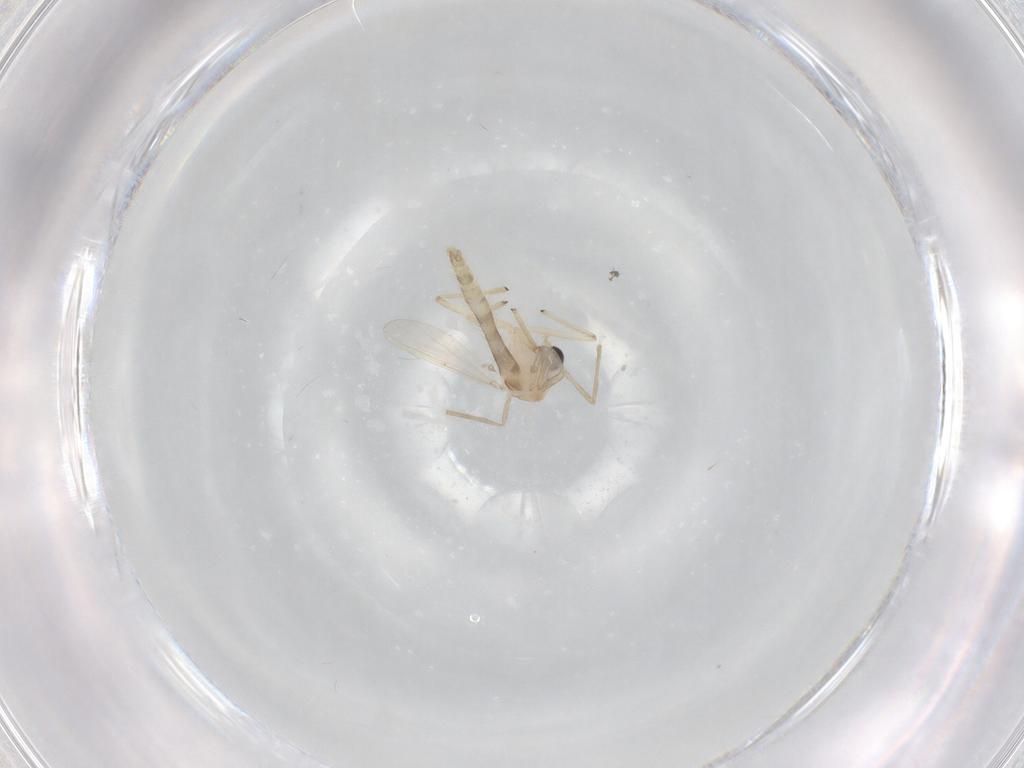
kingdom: Animalia
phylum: Arthropoda
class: Insecta
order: Diptera
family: Chironomidae
